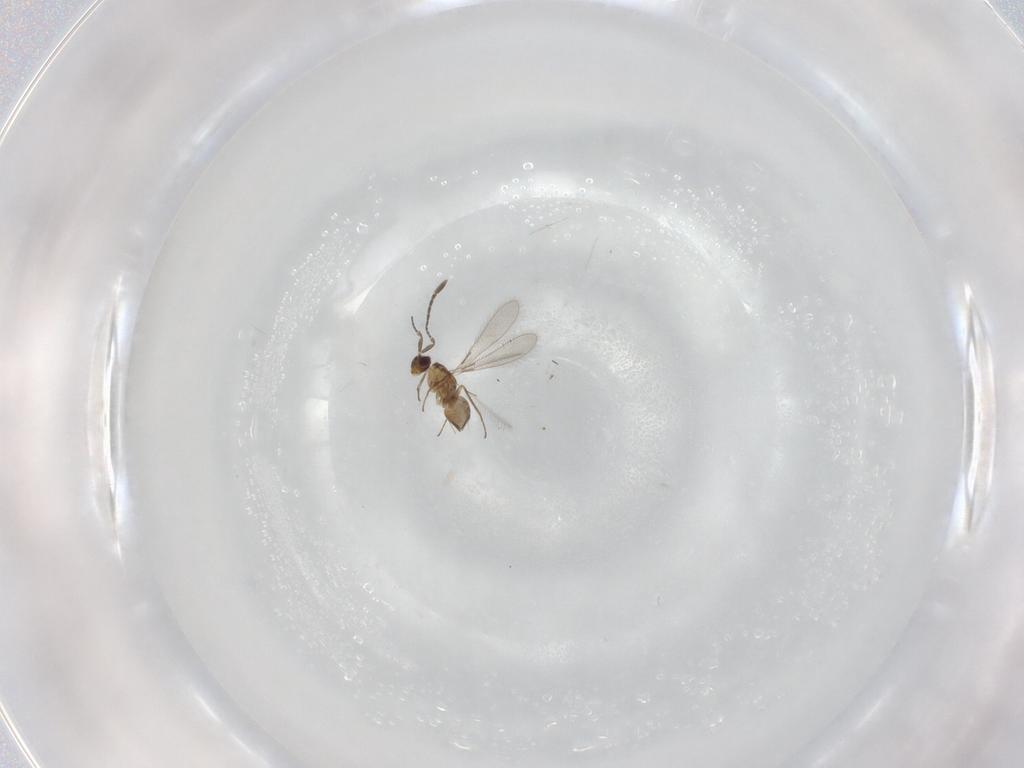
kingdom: Animalia
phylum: Arthropoda
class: Insecta
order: Hymenoptera
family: Mymaridae
